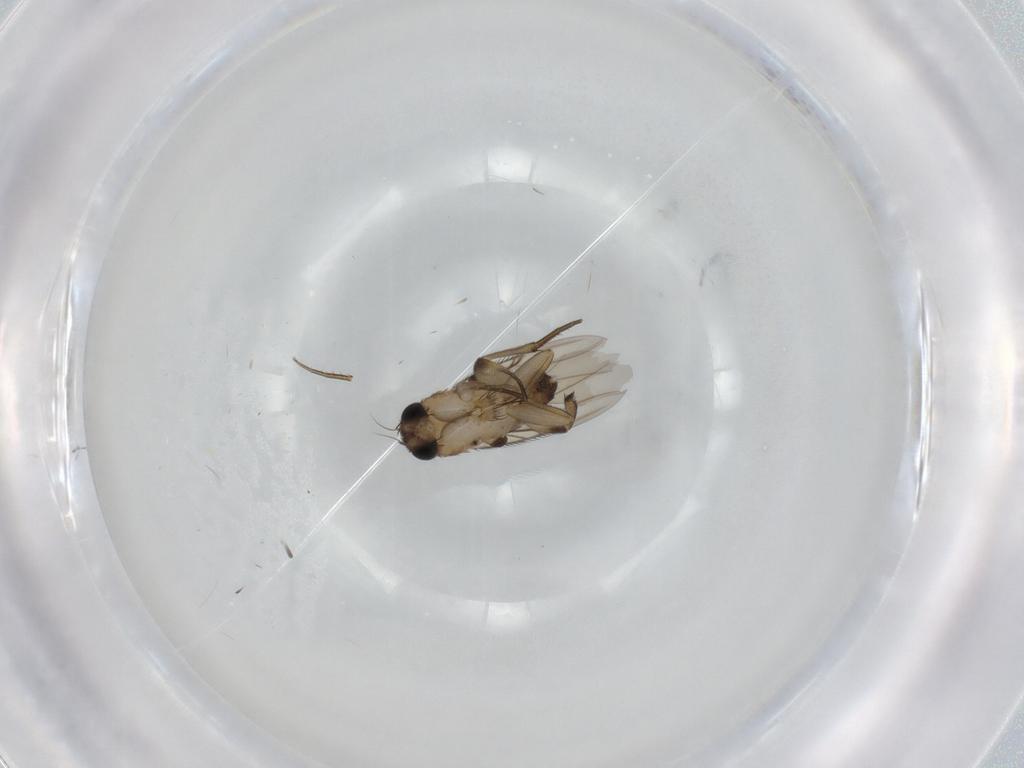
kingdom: Animalia
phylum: Arthropoda
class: Insecta
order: Diptera
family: Phoridae
